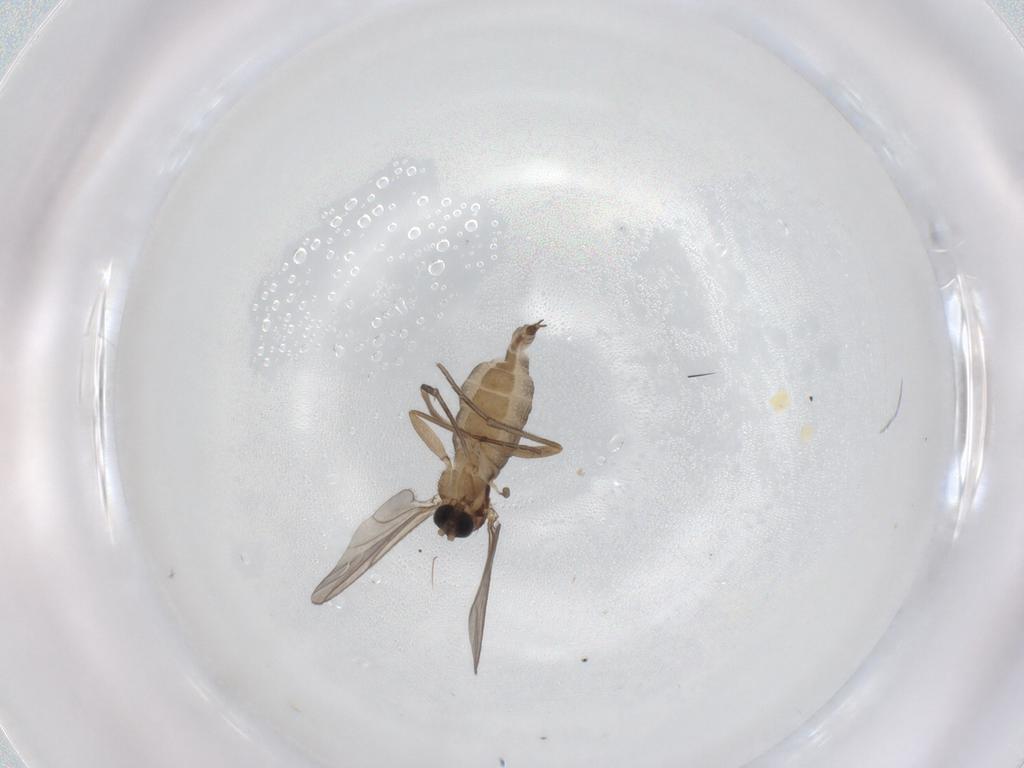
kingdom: Animalia
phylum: Arthropoda
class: Insecta
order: Diptera
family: Sciaridae
